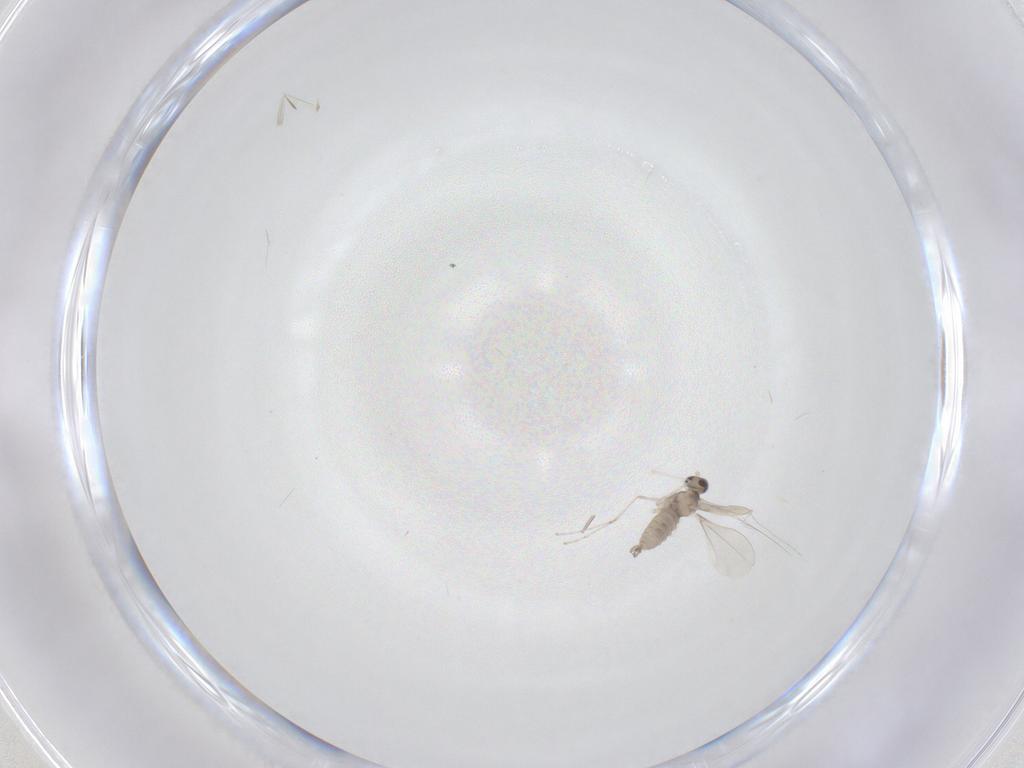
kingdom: Animalia
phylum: Arthropoda
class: Insecta
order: Diptera
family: Cecidomyiidae
